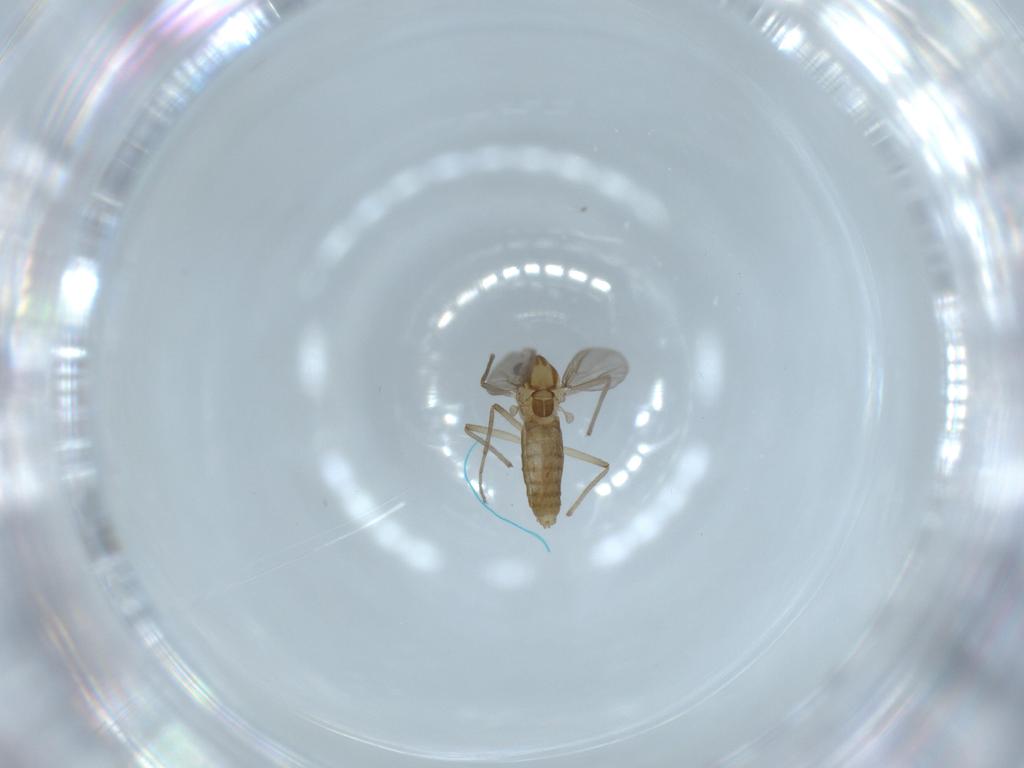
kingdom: Animalia
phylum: Arthropoda
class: Insecta
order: Diptera
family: Chironomidae
